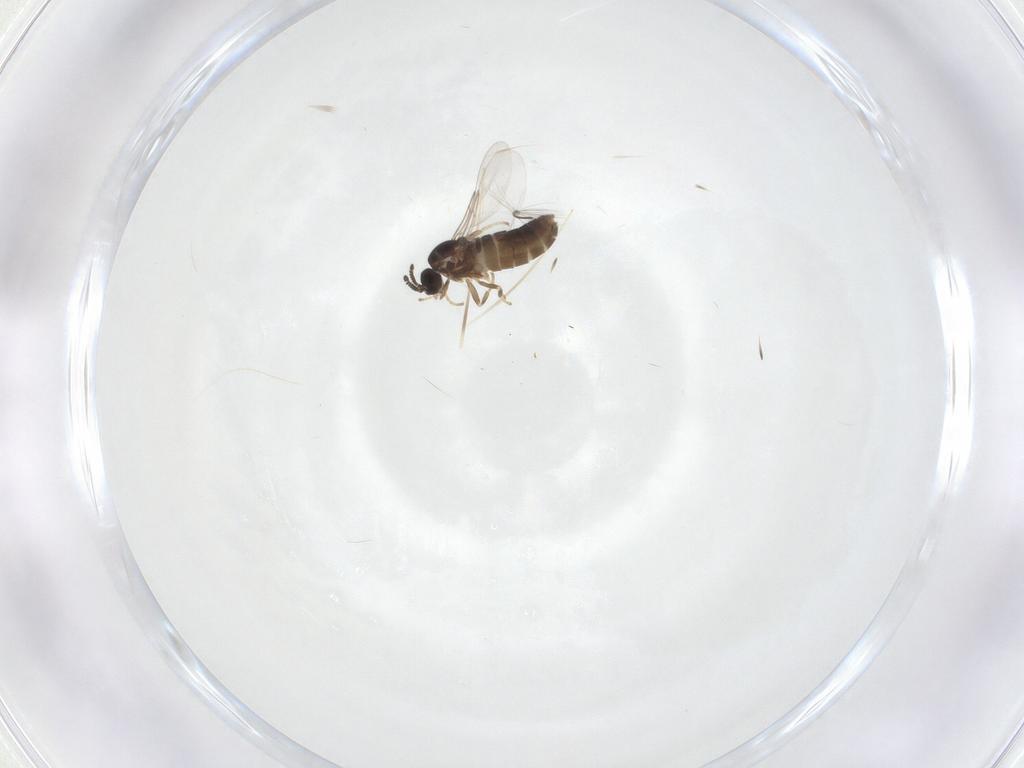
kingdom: Animalia
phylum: Arthropoda
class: Insecta
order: Diptera
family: Scatopsidae
